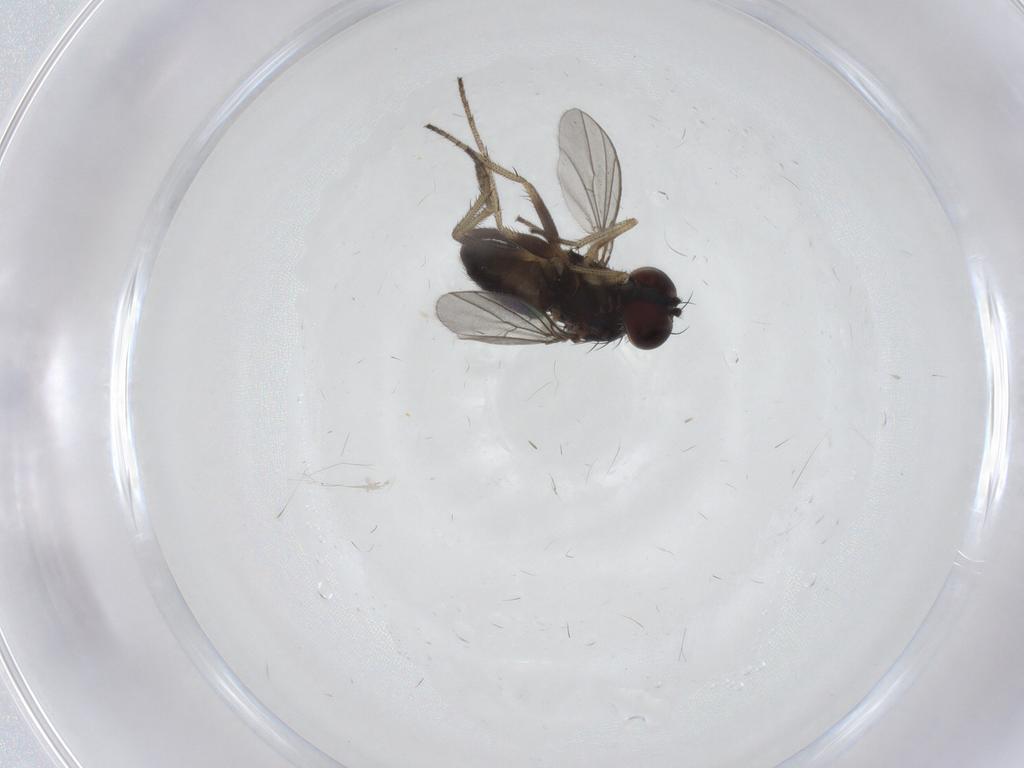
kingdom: Animalia
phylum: Arthropoda
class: Insecta
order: Diptera
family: Dolichopodidae
